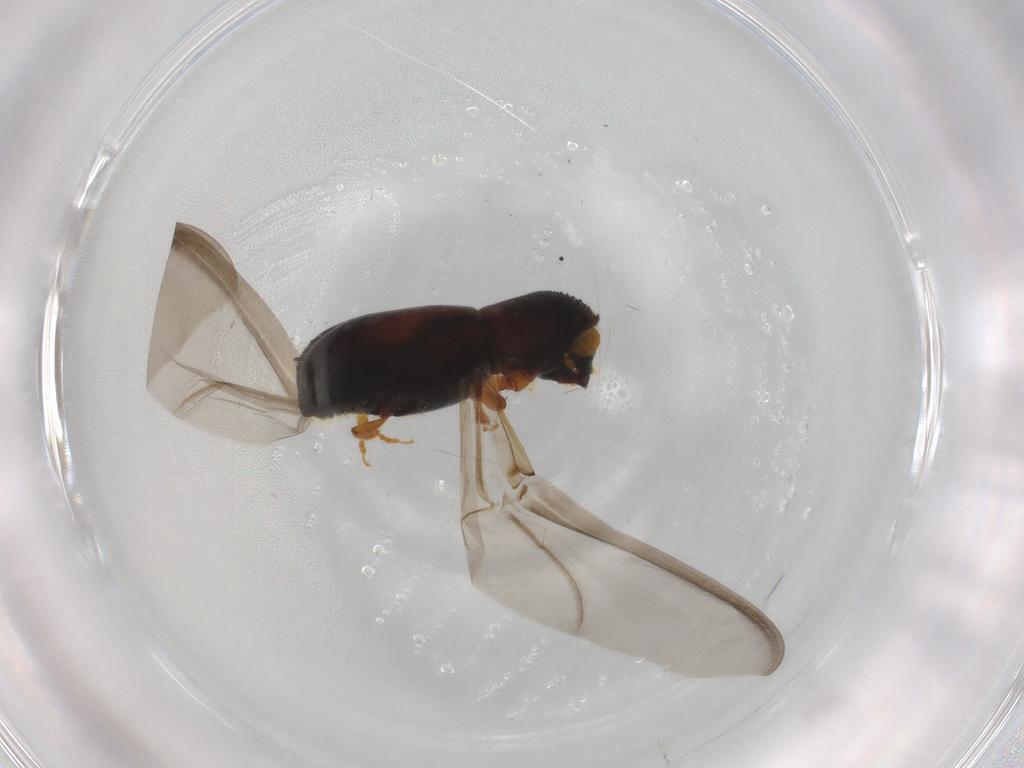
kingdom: Animalia
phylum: Arthropoda
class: Insecta
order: Coleoptera
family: Curculionidae
